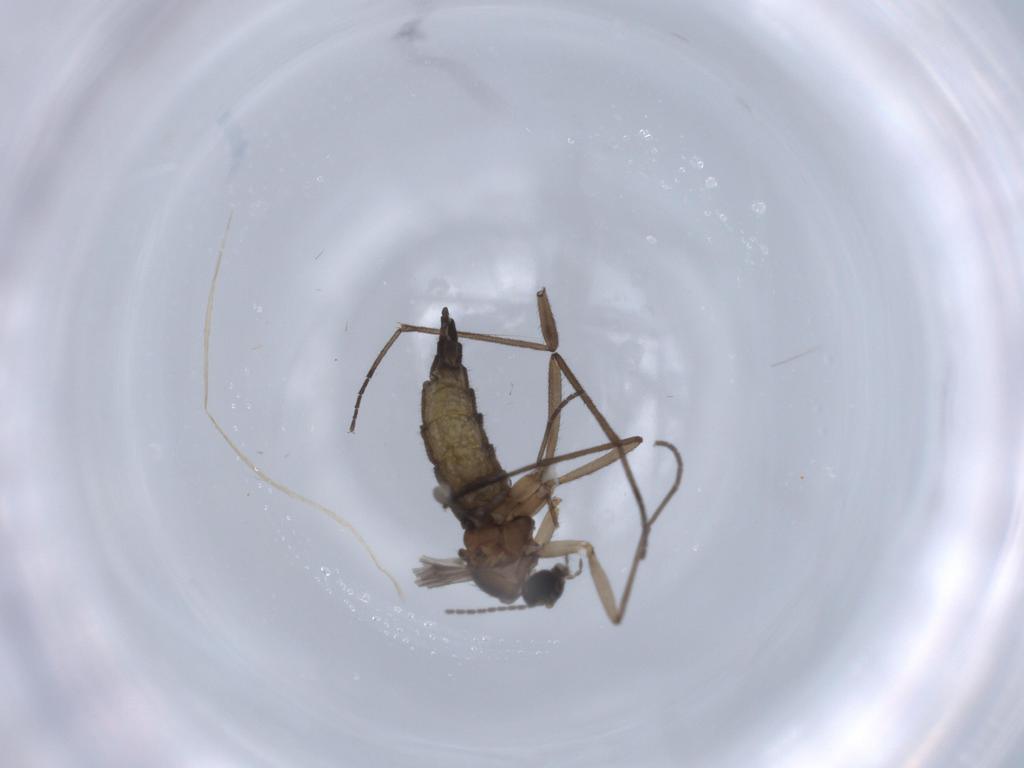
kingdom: Animalia
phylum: Arthropoda
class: Insecta
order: Diptera
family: Sciaridae
